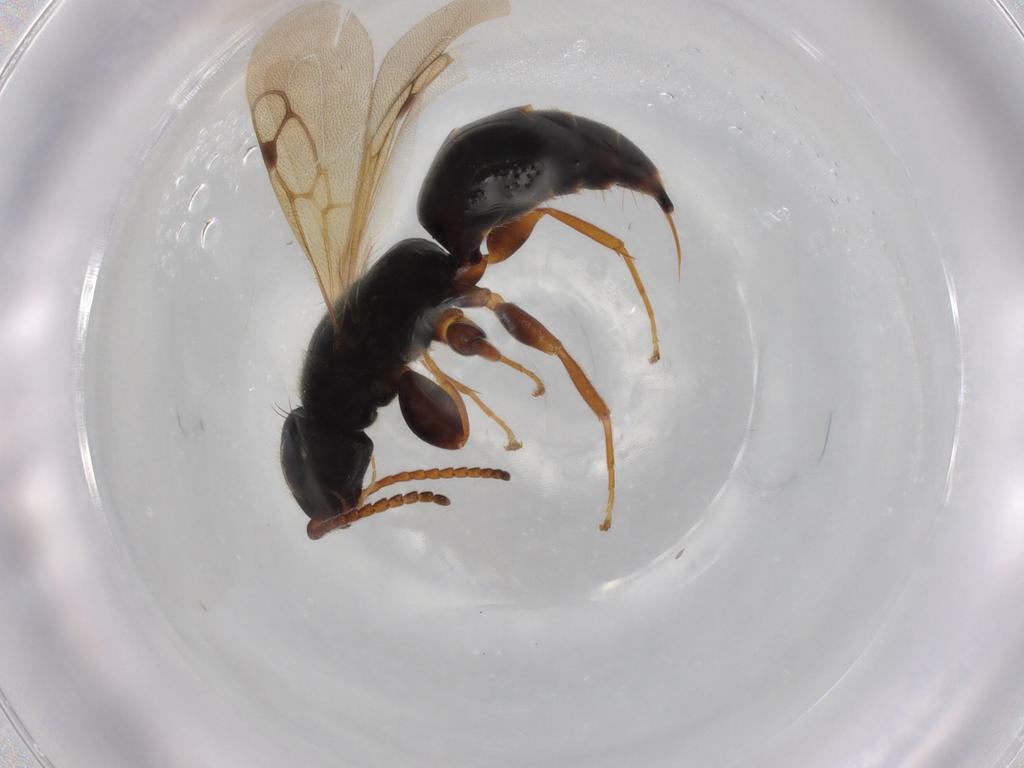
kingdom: Animalia
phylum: Arthropoda
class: Insecta
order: Hymenoptera
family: Bethylidae
